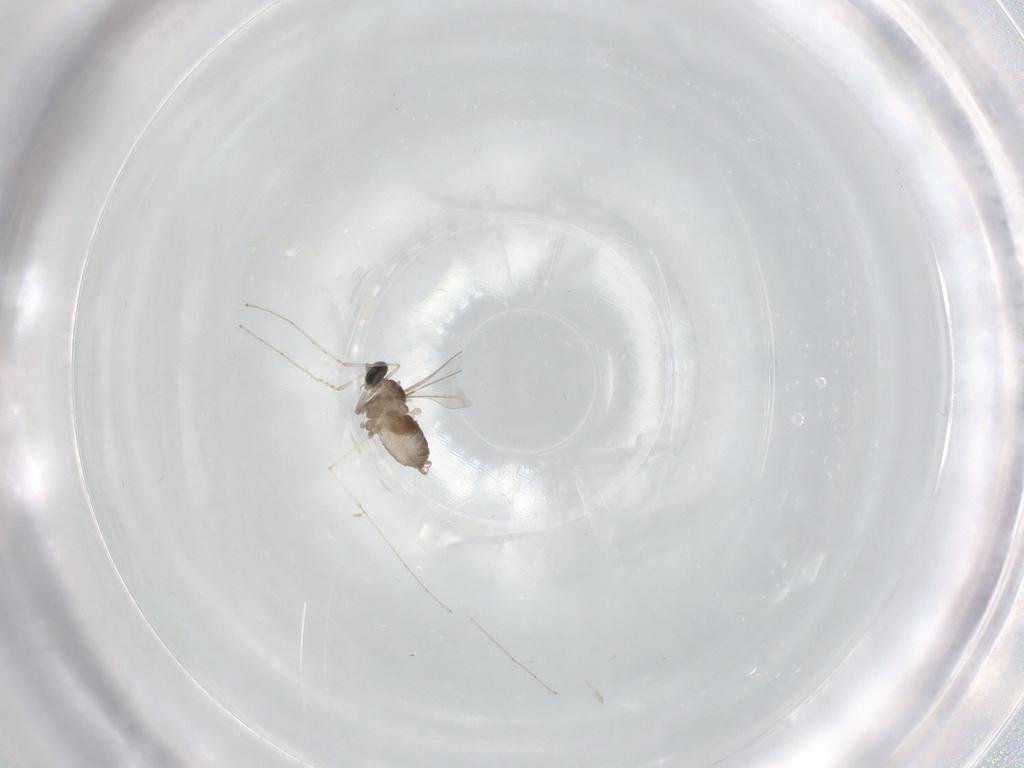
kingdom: Animalia
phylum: Arthropoda
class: Insecta
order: Diptera
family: Cecidomyiidae
